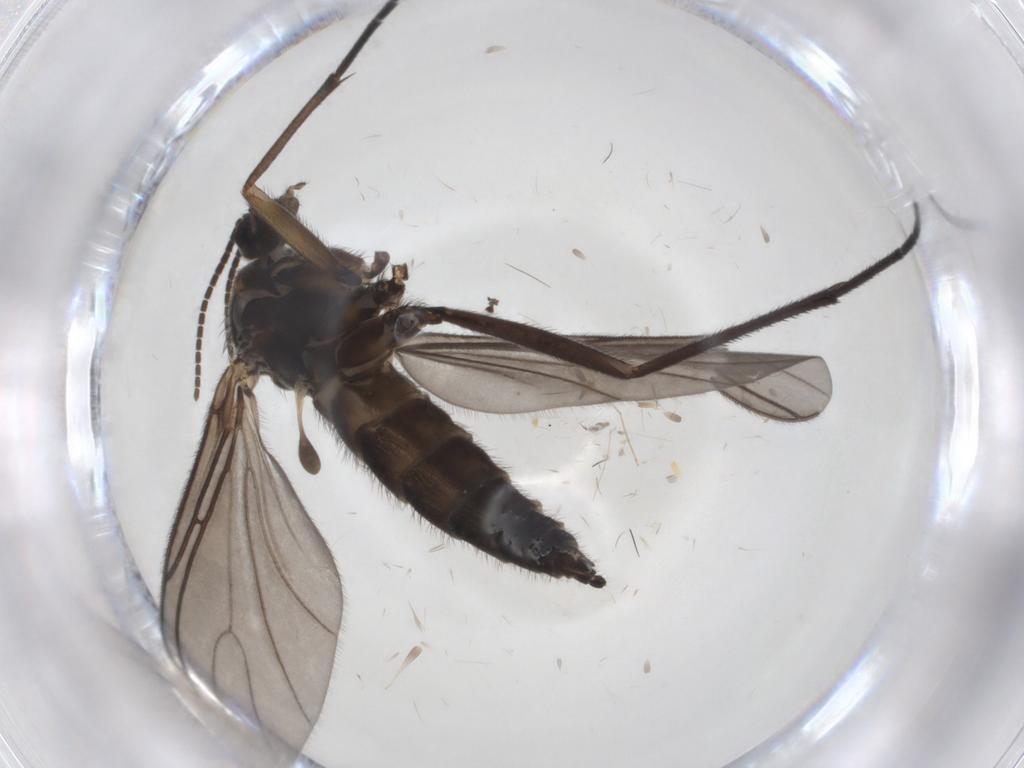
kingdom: Animalia
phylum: Arthropoda
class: Insecta
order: Diptera
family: Sciaridae
